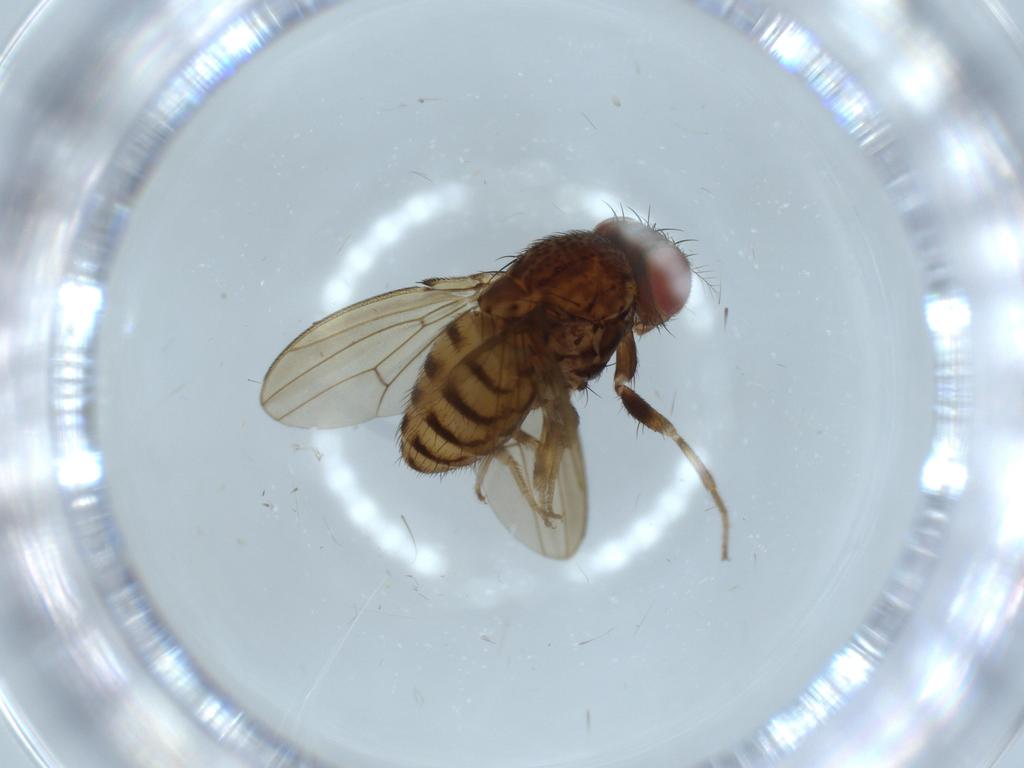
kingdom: Animalia
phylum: Arthropoda
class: Insecta
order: Diptera
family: Drosophilidae
